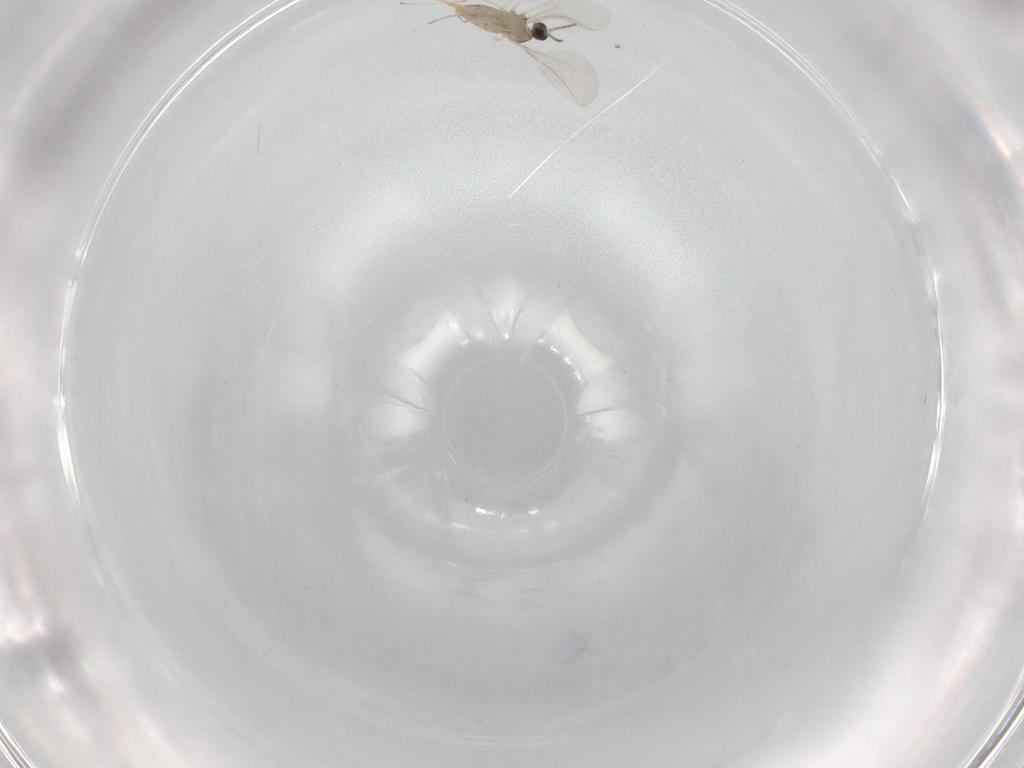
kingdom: Animalia
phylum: Arthropoda
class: Insecta
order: Diptera
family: Cecidomyiidae
